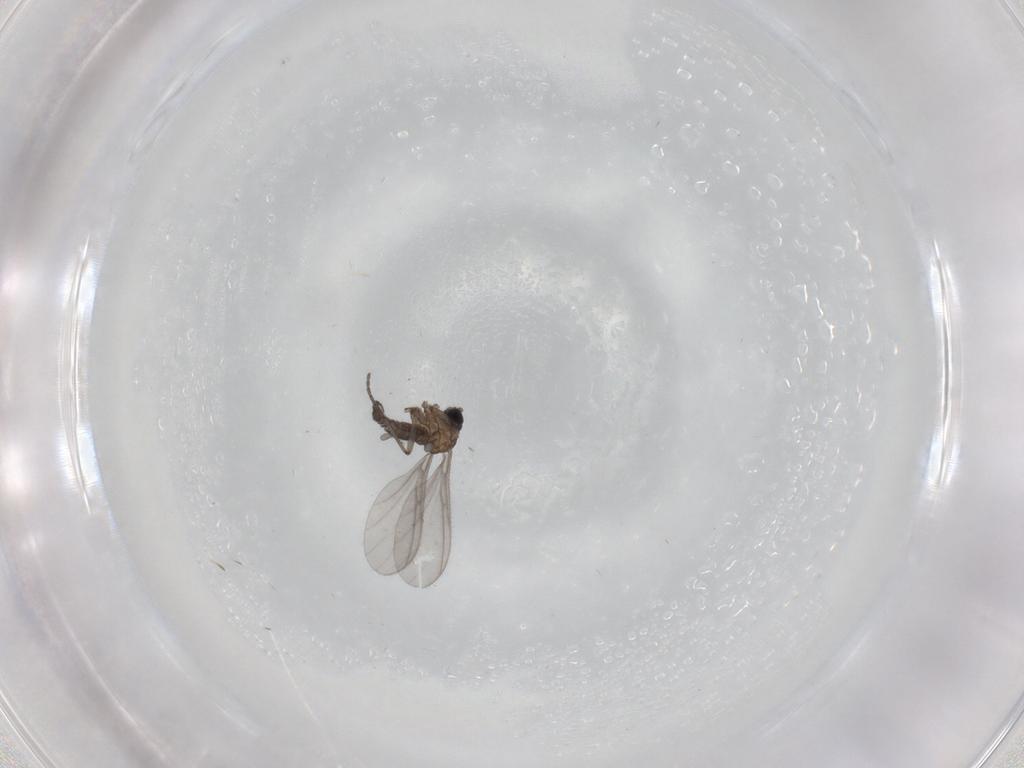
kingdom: Animalia
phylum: Arthropoda
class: Insecta
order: Diptera
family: Sciaridae
